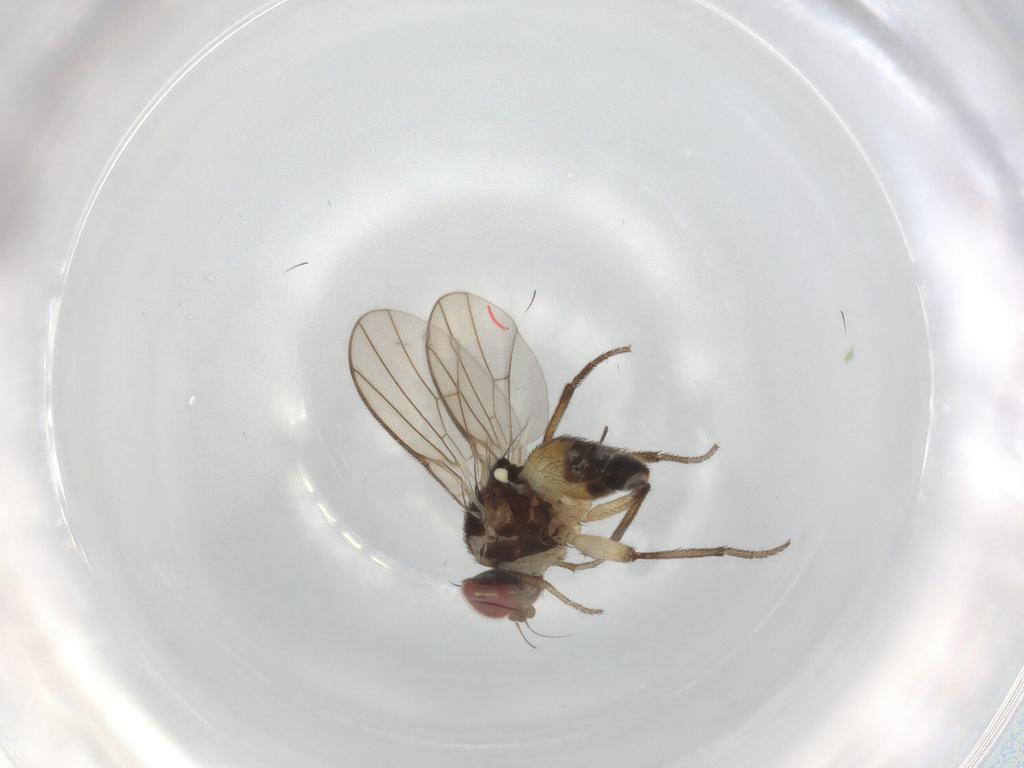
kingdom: Animalia
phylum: Arthropoda
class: Insecta
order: Diptera
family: Agromyzidae
